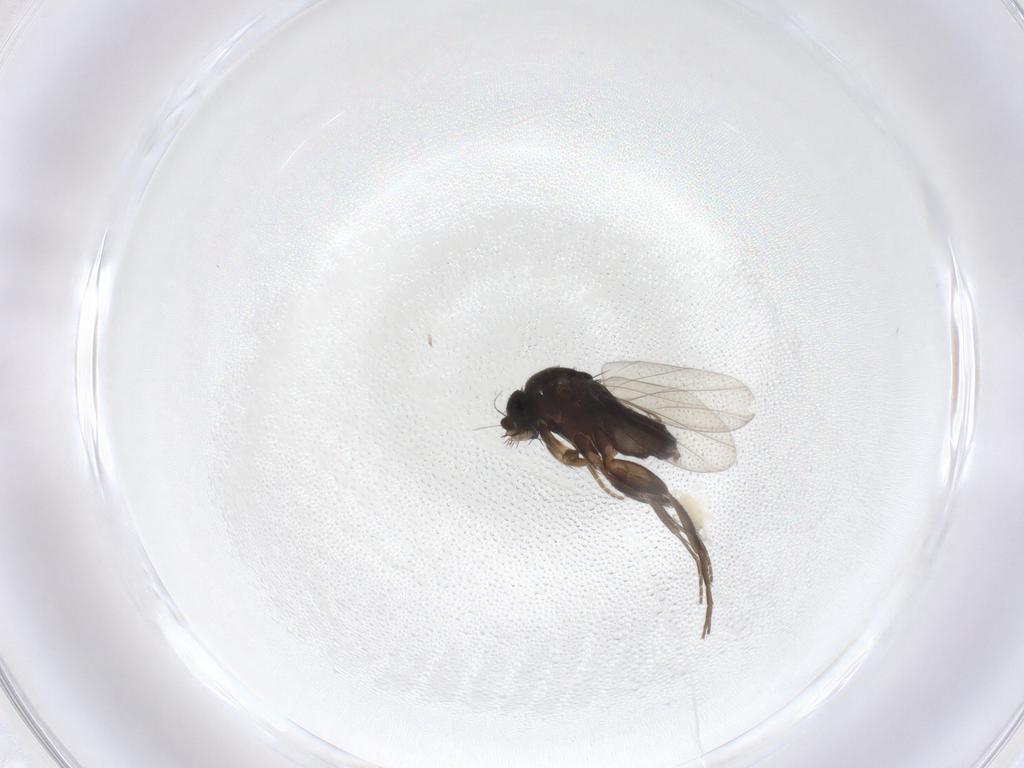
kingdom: Animalia
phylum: Arthropoda
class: Insecta
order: Diptera
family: Phoridae
